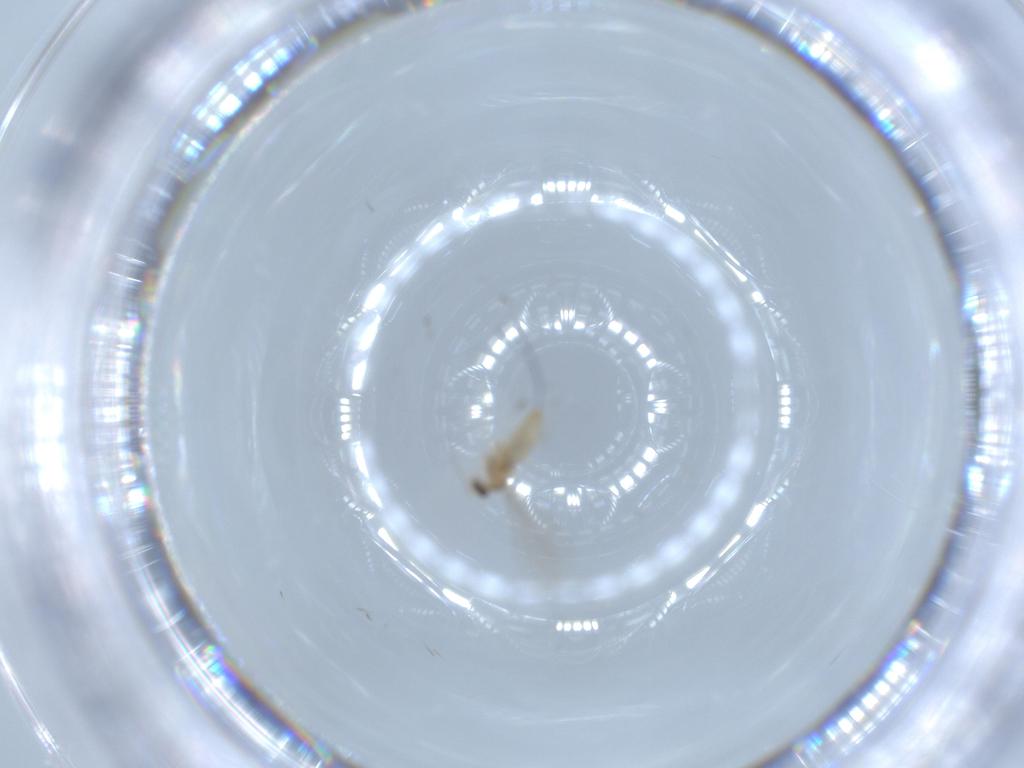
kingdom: Animalia
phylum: Arthropoda
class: Insecta
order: Diptera
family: Cecidomyiidae
